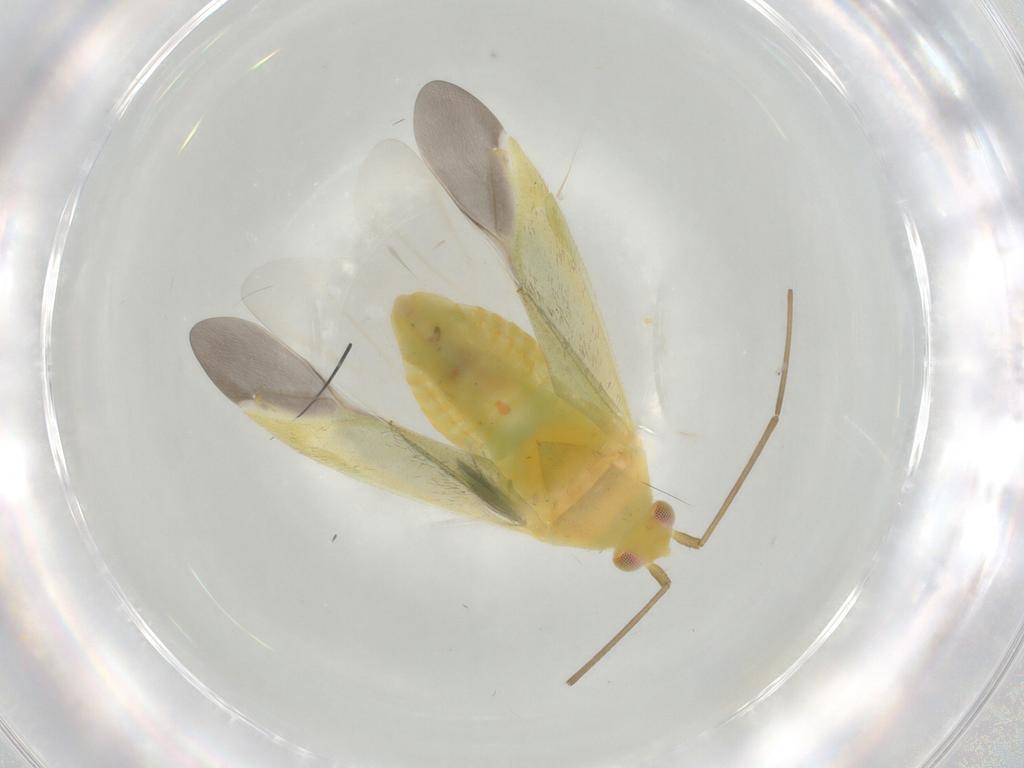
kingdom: Animalia
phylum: Arthropoda
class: Insecta
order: Hemiptera
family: Miridae
